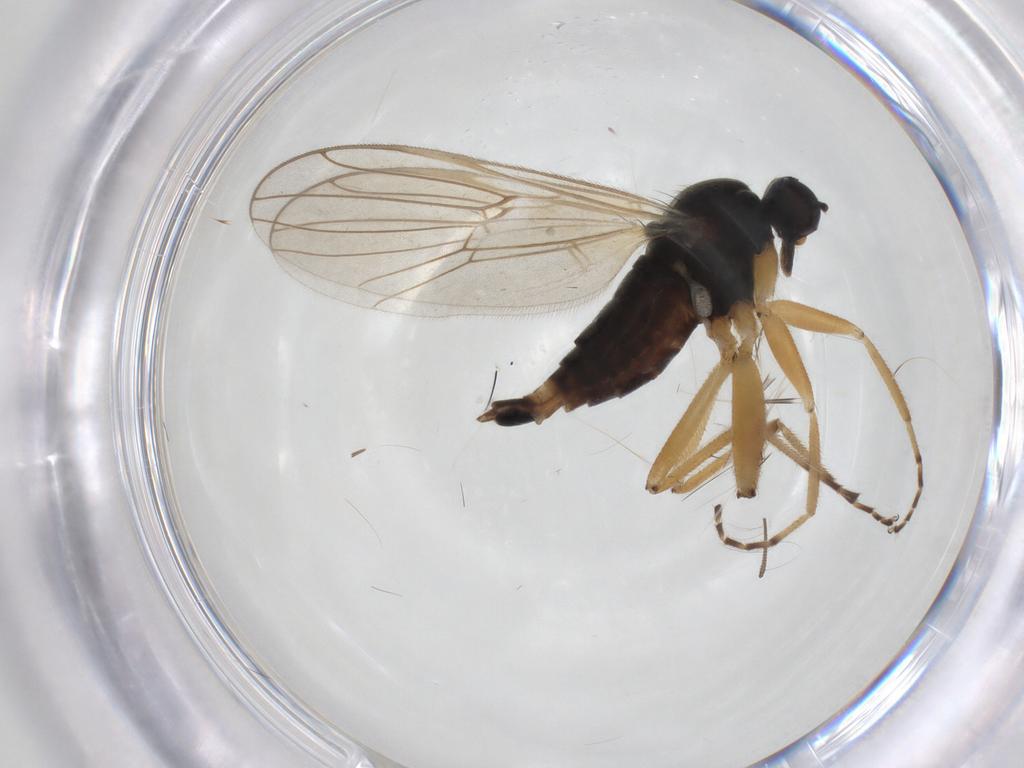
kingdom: Animalia
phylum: Arthropoda
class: Insecta
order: Diptera
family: Hybotidae
